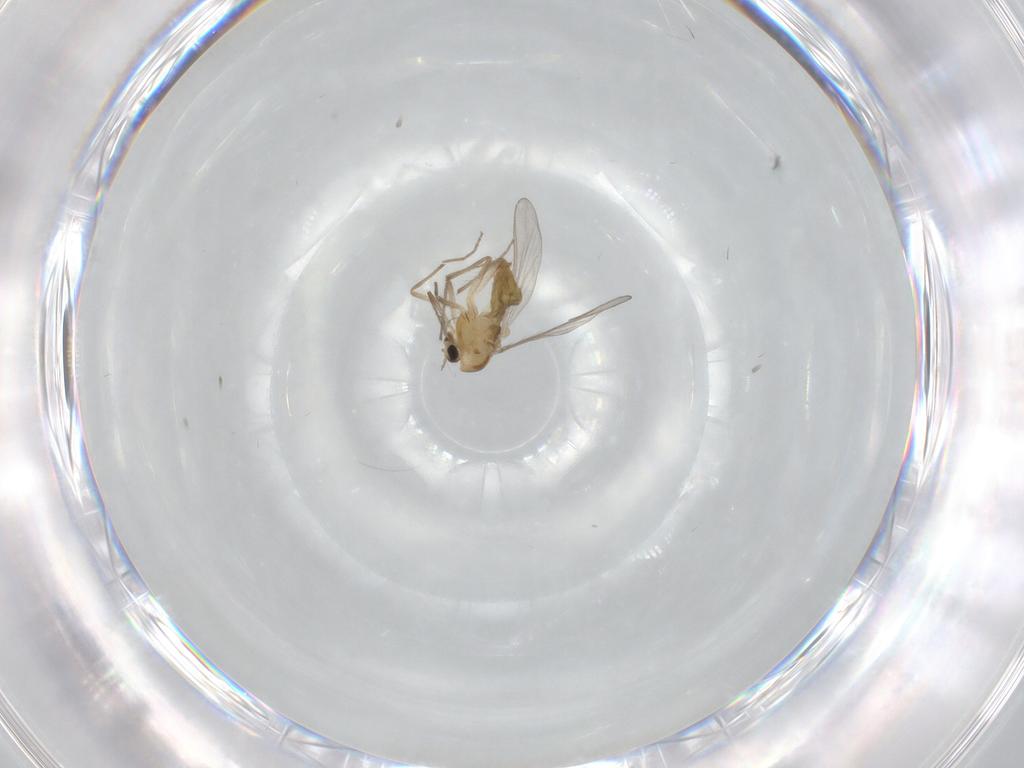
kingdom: Animalia
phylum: Arthropoda
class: Insecta
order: Diptera
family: Chironomidae
